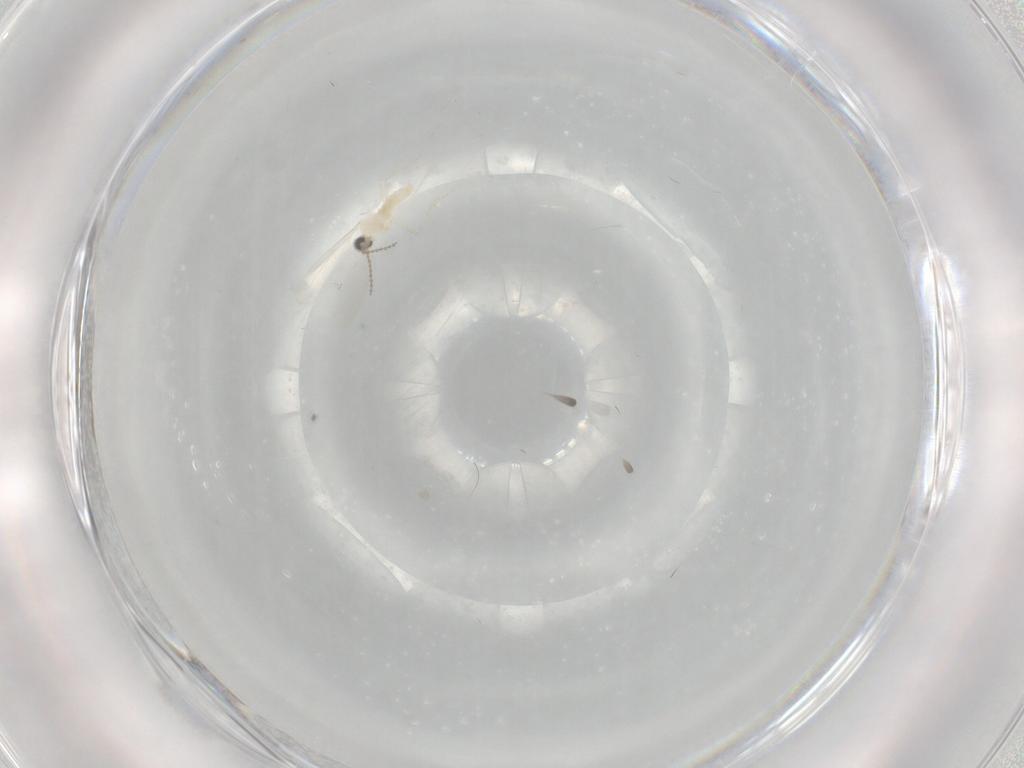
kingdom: Animalia
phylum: Arthropoda
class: Insecta
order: Diptera
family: Cecidomyiidae
